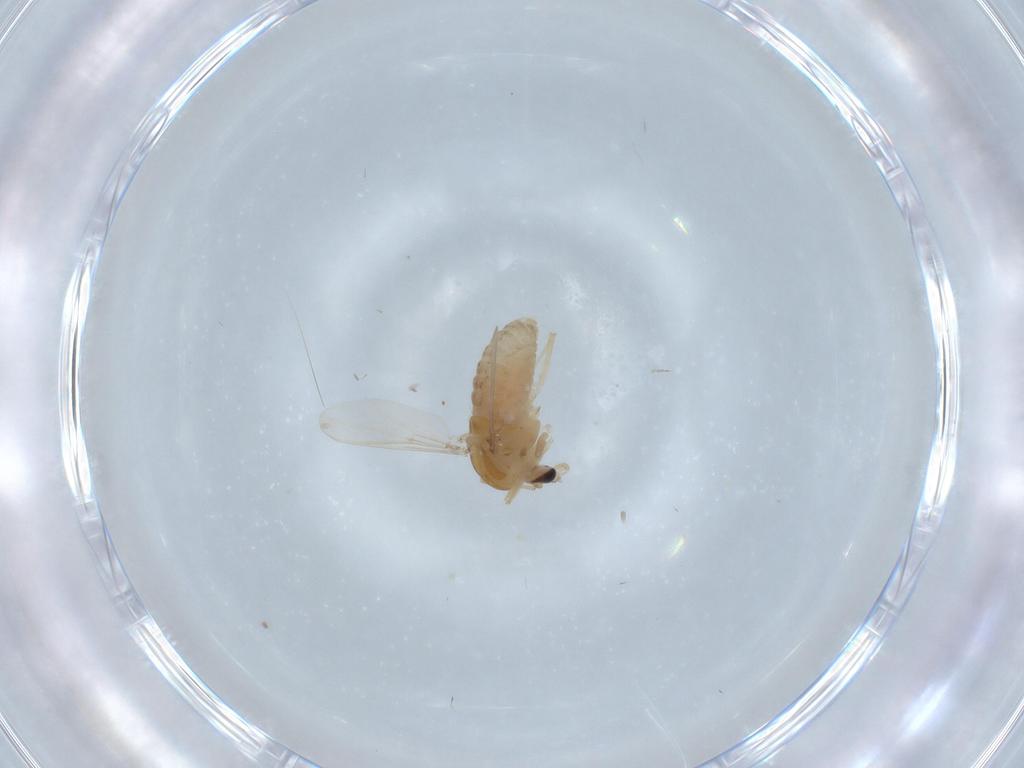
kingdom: Animalia
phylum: Arthropoda
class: Insecta
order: Diptera
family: Chironomidae
